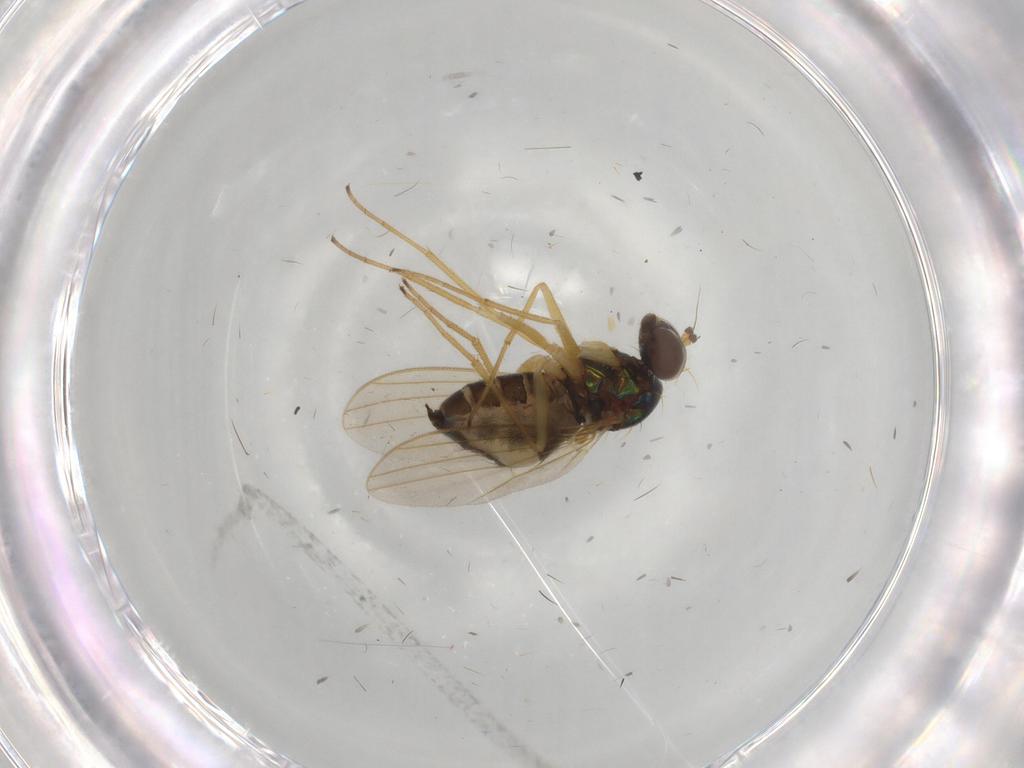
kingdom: Animalia
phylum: Arthropoda
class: Insecta
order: Diptera
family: Dolichopodidae
